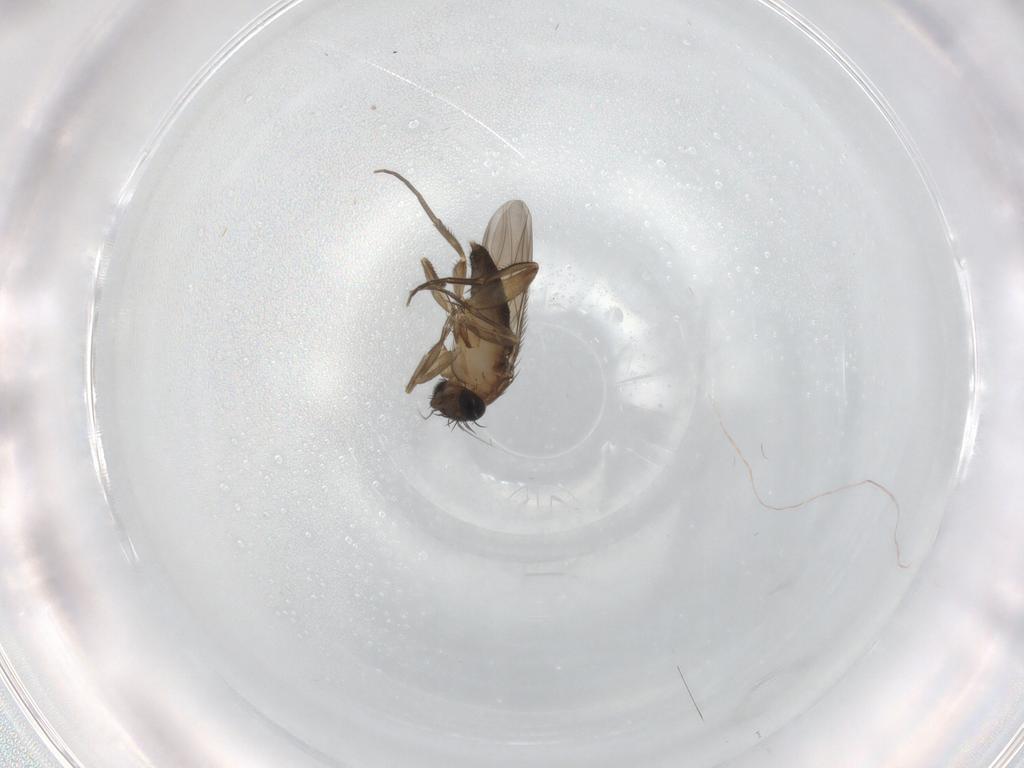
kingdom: Animalia
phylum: Arthropoda
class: Insecta
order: Diptera
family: Phoridae
